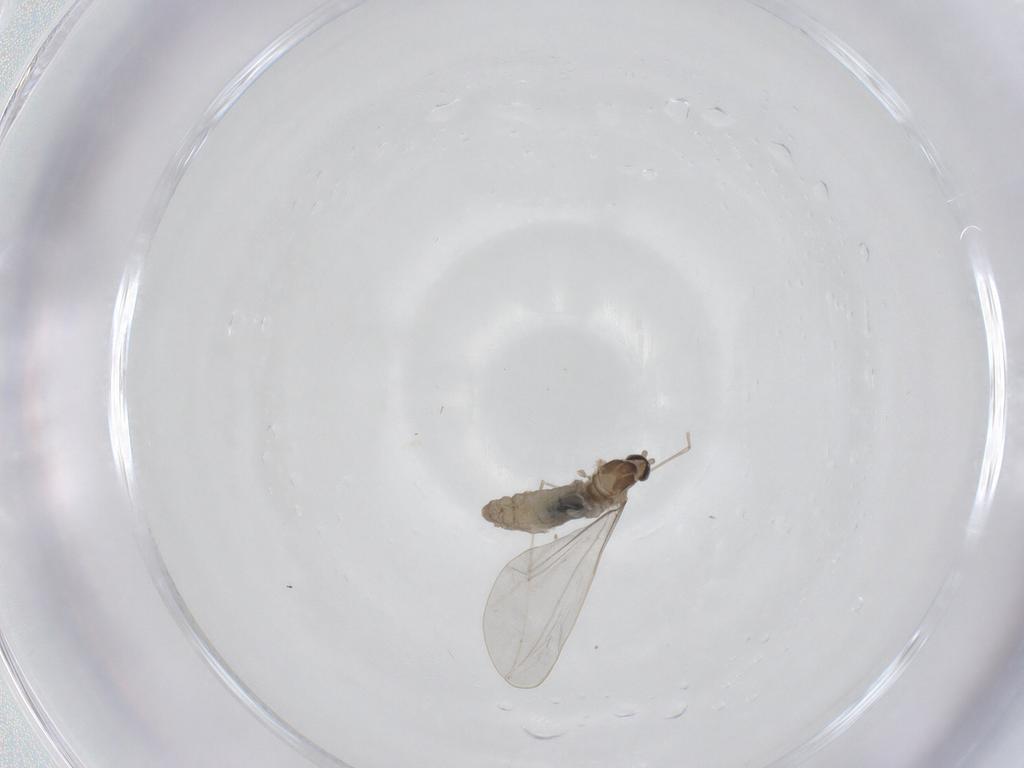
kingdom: Animalia
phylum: Arthropoda
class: Insecta
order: Diptera
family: Cecidomyiidae
